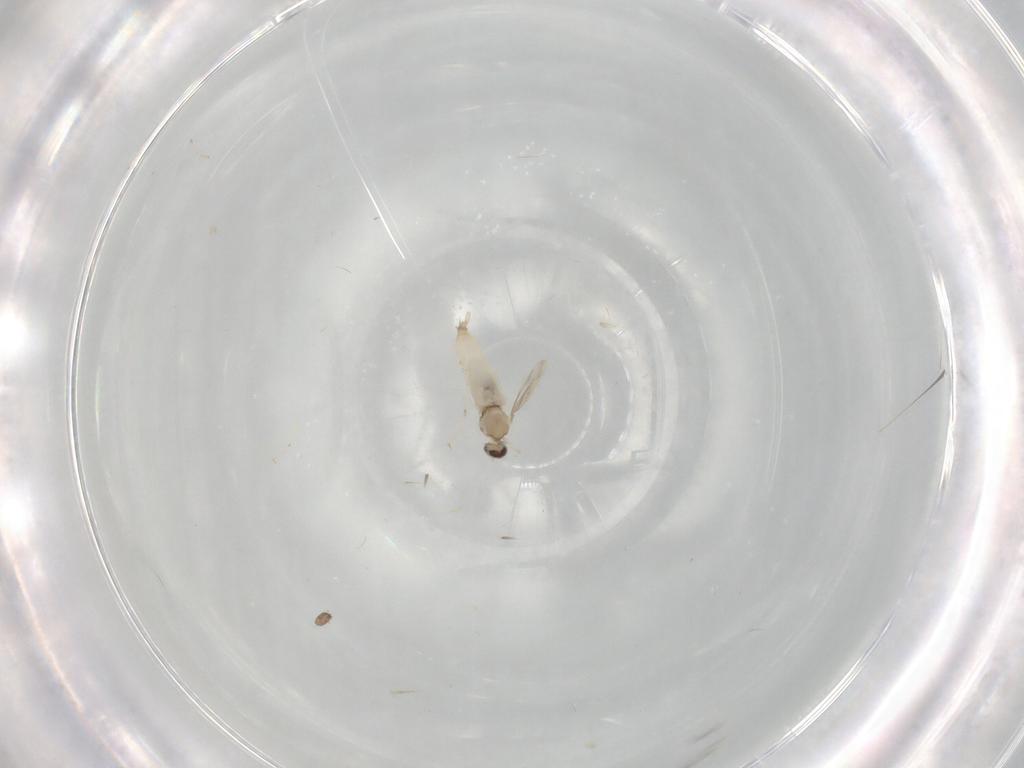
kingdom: Animalia
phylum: Arthropoda
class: Insecta
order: Diptera
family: Cecidomyiidae
